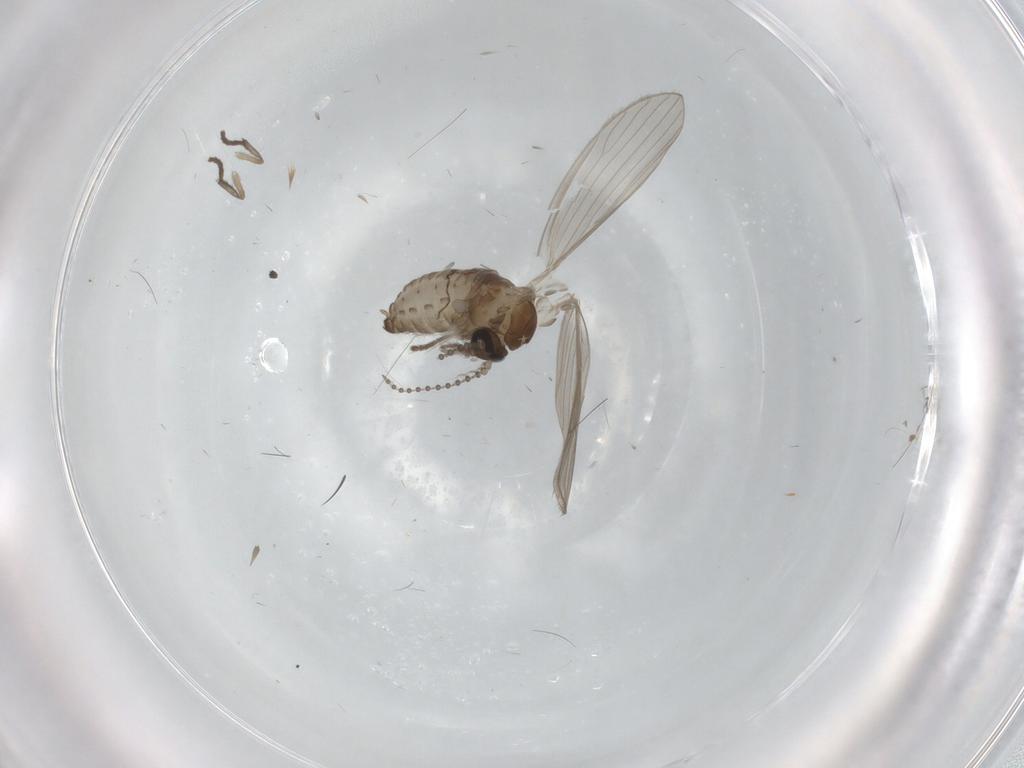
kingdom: Animalia
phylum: Arthropoda
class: Insecta
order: Diptera
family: Psychodidae
